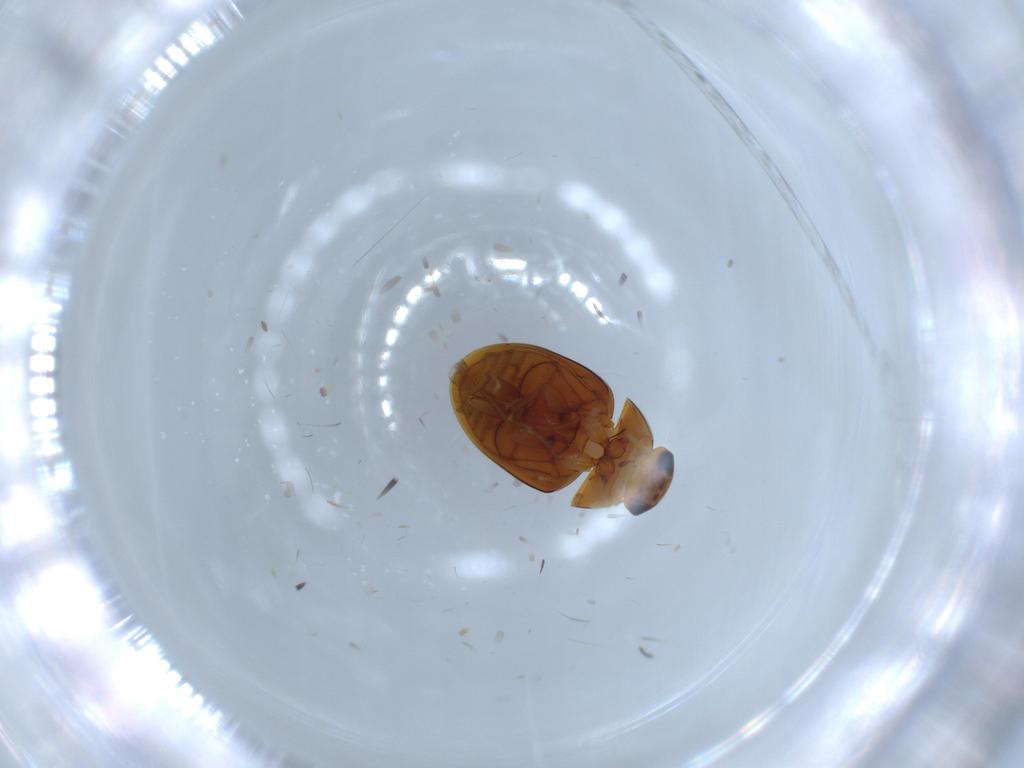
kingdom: Animalia
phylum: Arthropoda
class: Insecta
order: Coleoptera
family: Phalacridae
